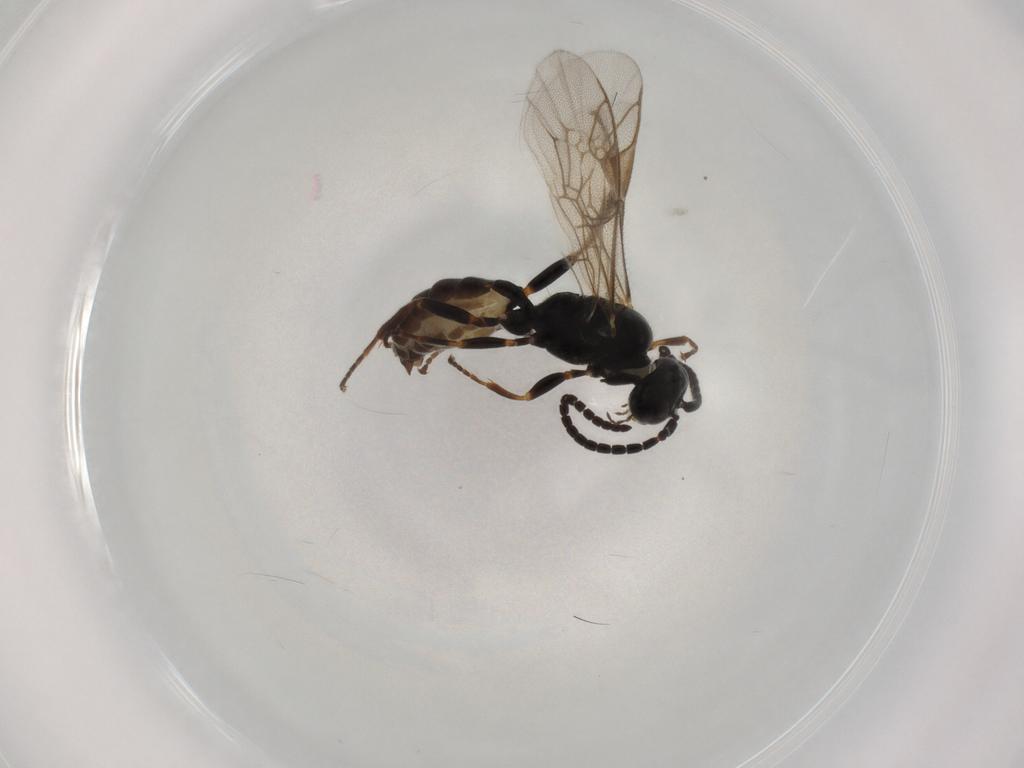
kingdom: Animalia
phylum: Arthropoda
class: Insecta
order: Hymenoptera
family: Ichneumonidae
